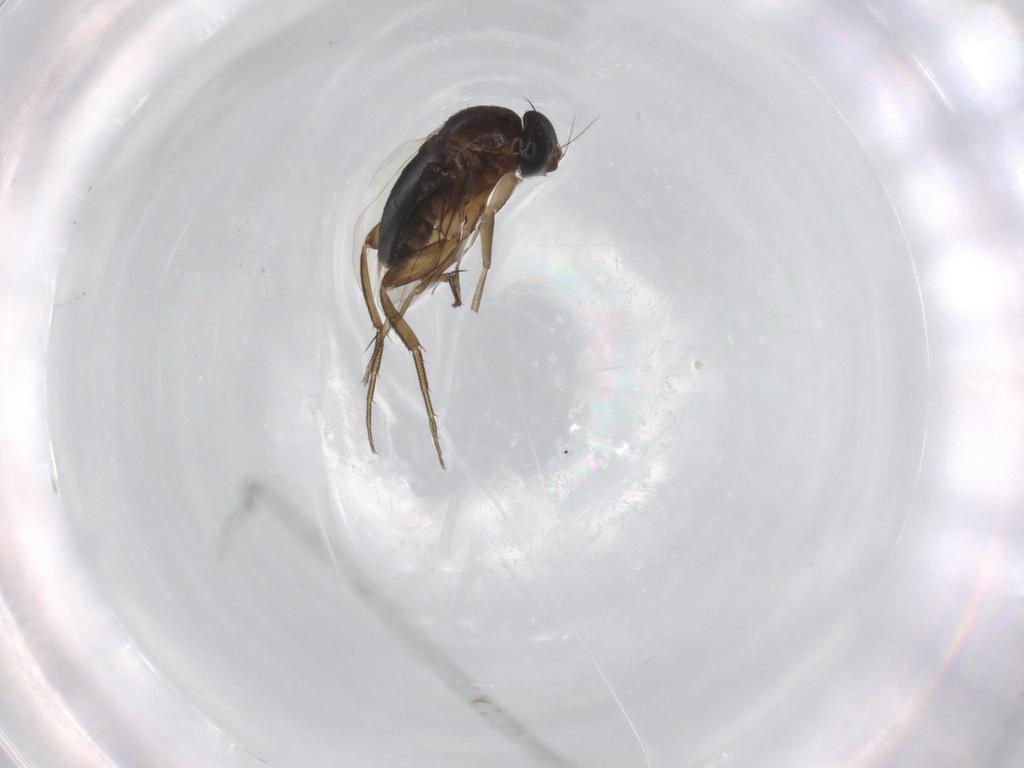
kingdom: Animalia
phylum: Arthropoda
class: Insecta
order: Diptera
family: Phoridae
